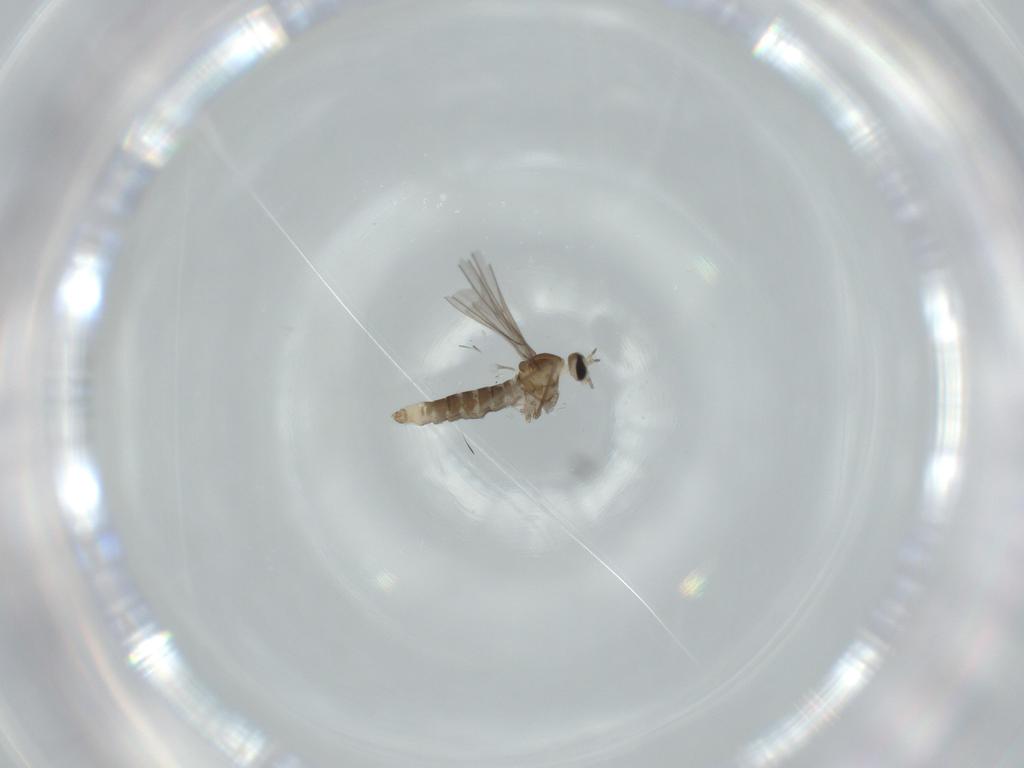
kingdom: Animalia
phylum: Arthropoda
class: Insecta
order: Diptera
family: Cecidomyiidae
